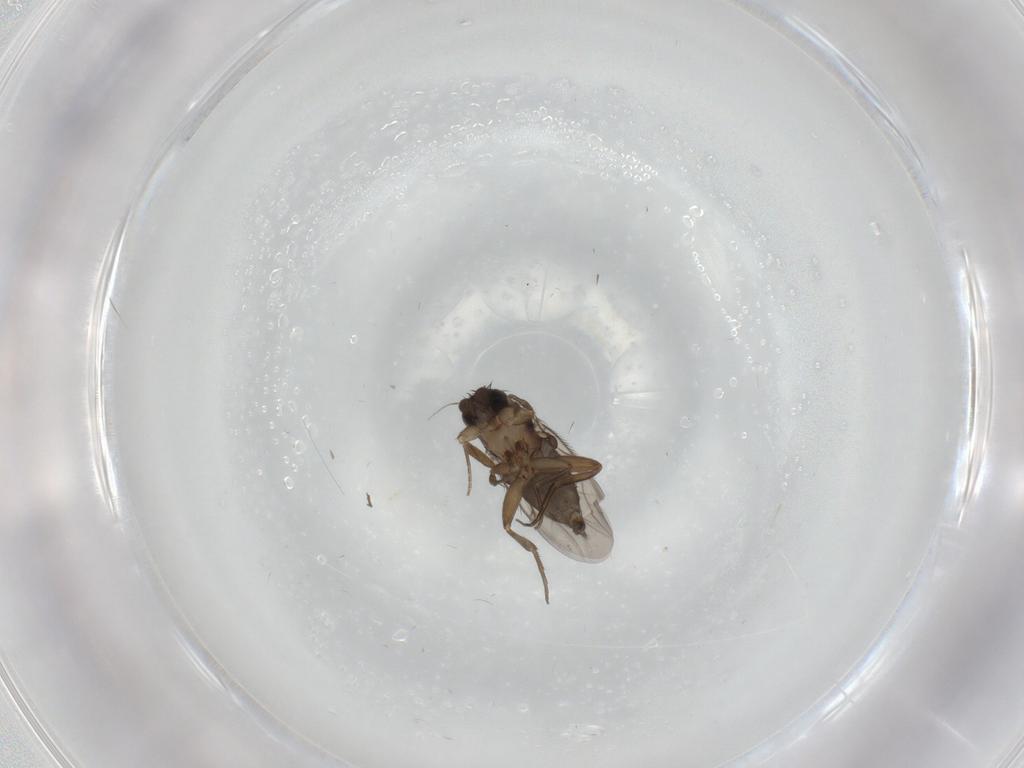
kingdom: Animalia
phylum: Arthropoda
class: Insecta
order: Diptera
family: Phoridae
